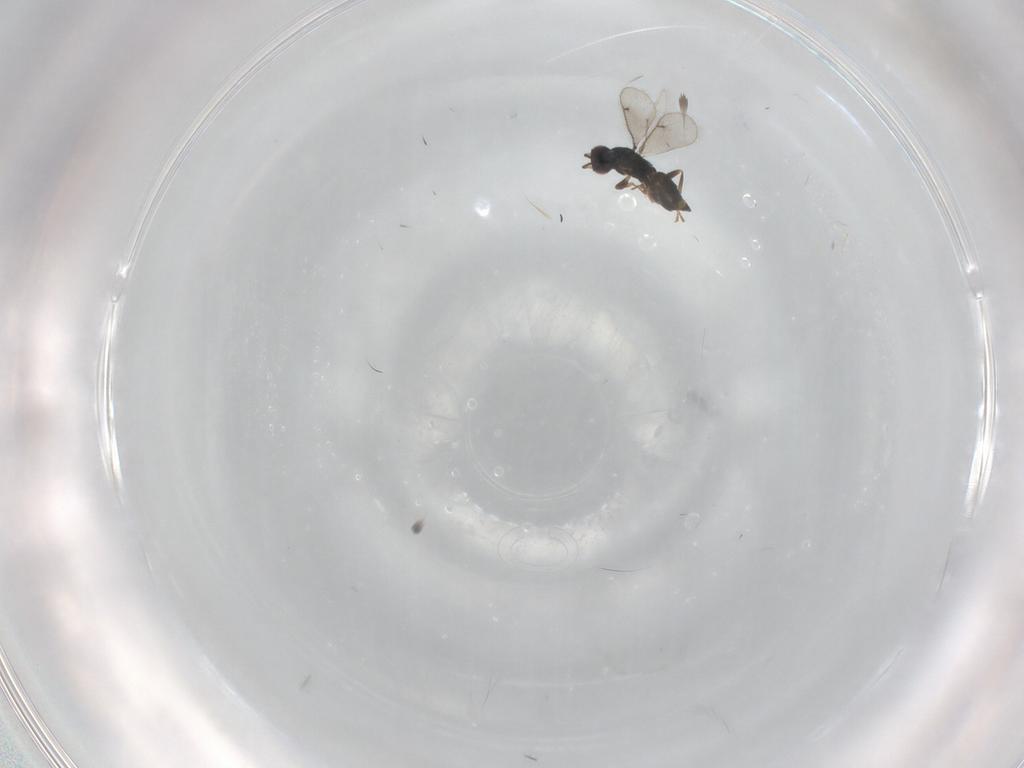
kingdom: Animalia
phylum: Arthropoda
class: Insecta
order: Hymenoptera
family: Eulophidae
